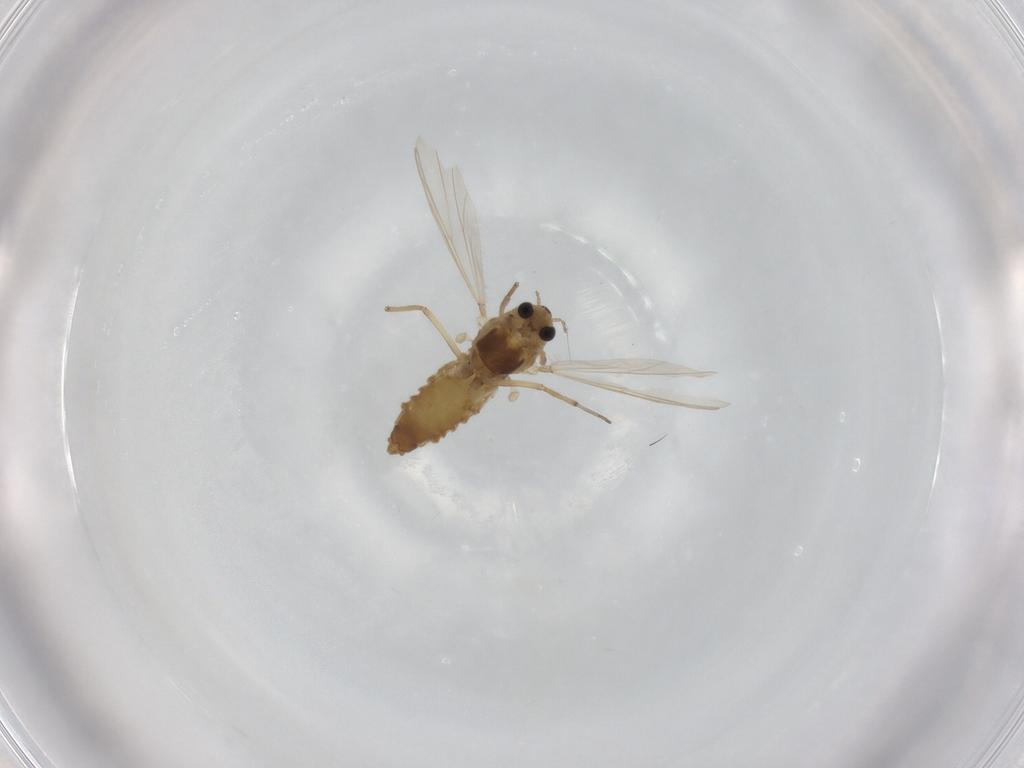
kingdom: Animalia
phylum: Arthropoda
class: Insecta
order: Diptera
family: Chironomidae
